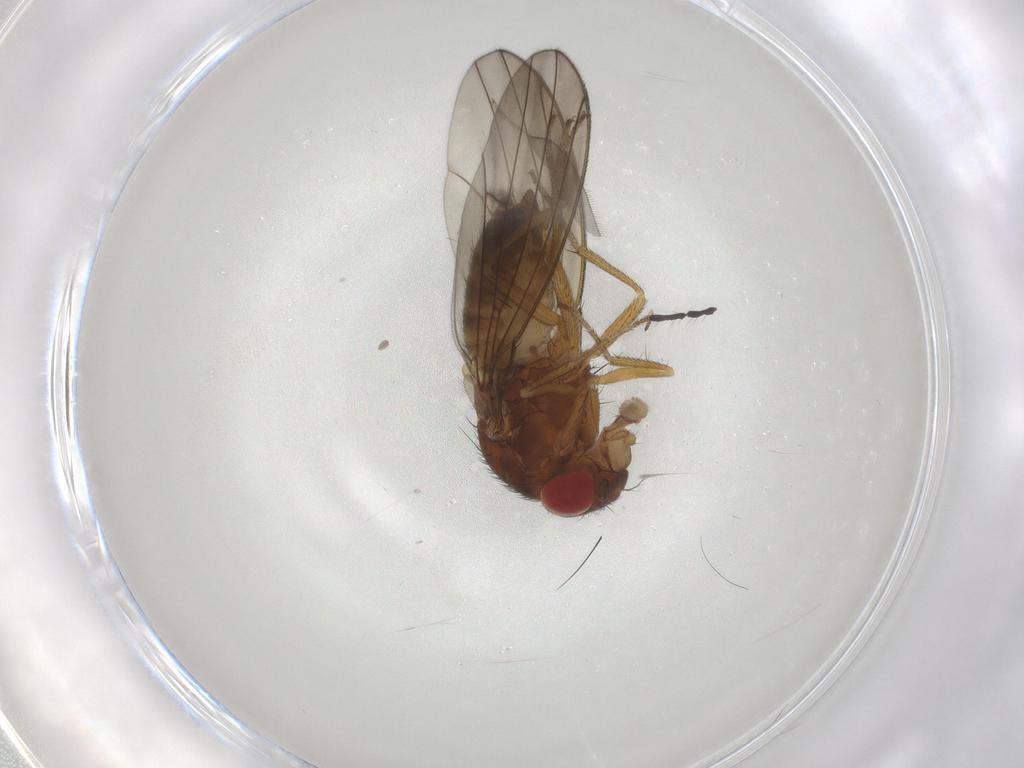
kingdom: Animalia
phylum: Arthropoda
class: Insecta
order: Diptera
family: Drosophilidae
